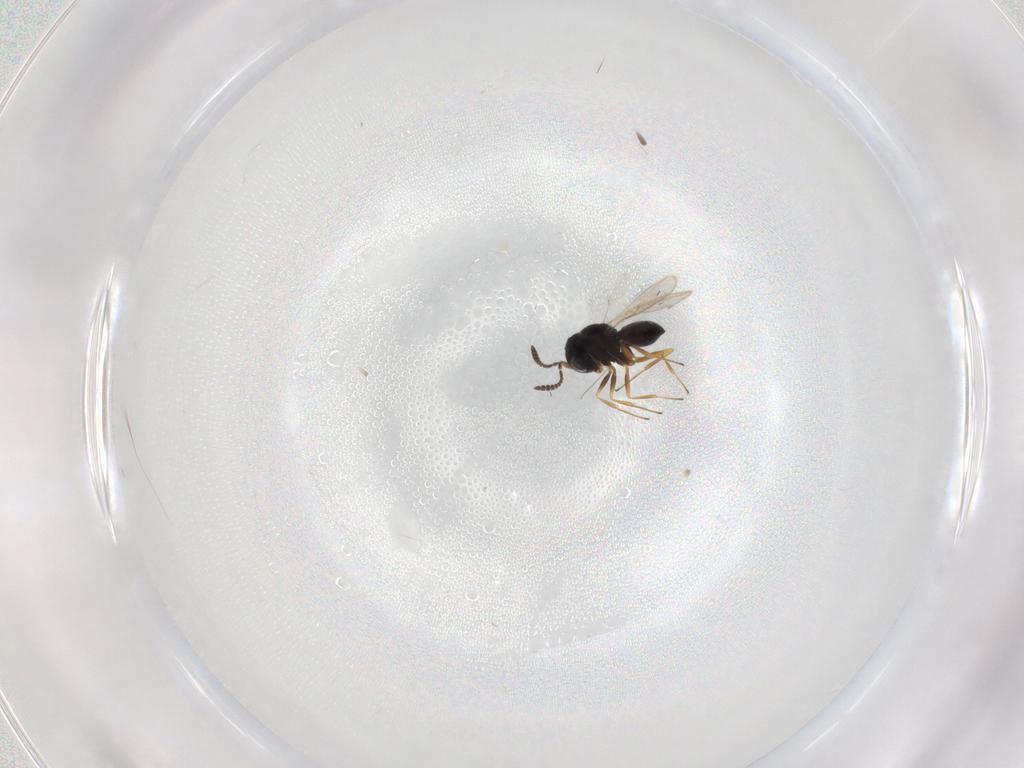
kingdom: Animalia
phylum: Arthropoda
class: Insecta
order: Hymenoptera
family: Scelionidae
